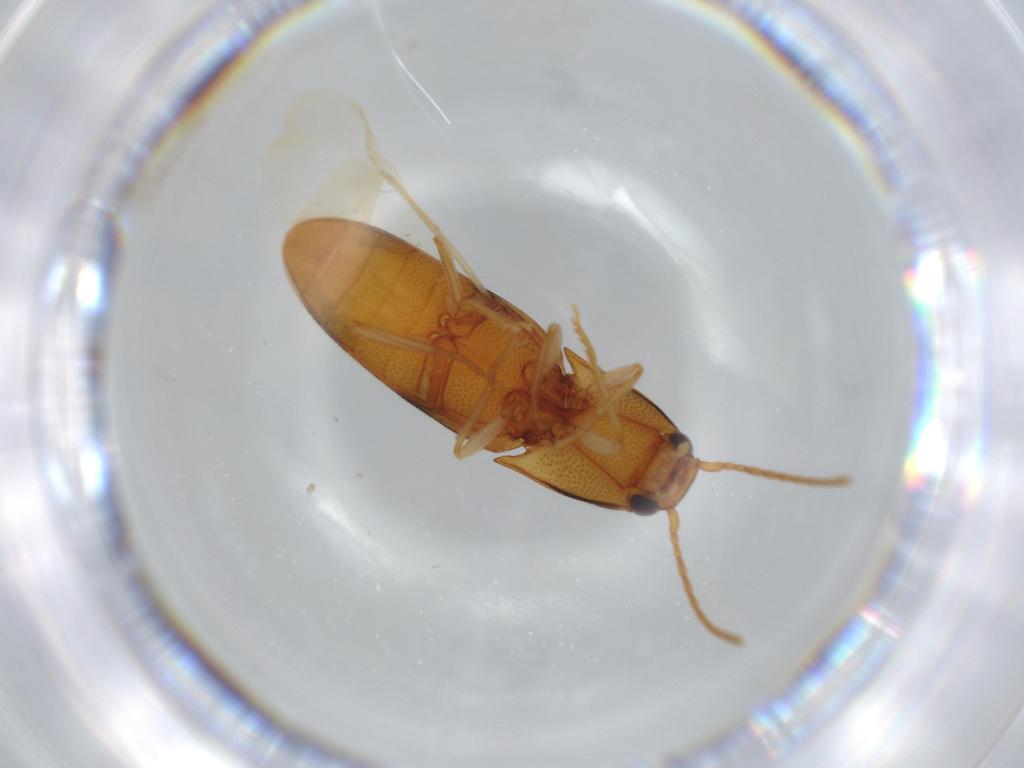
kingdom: Animalia
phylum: Arthropoda
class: Insecta
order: Coleoptera
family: Elateridae
